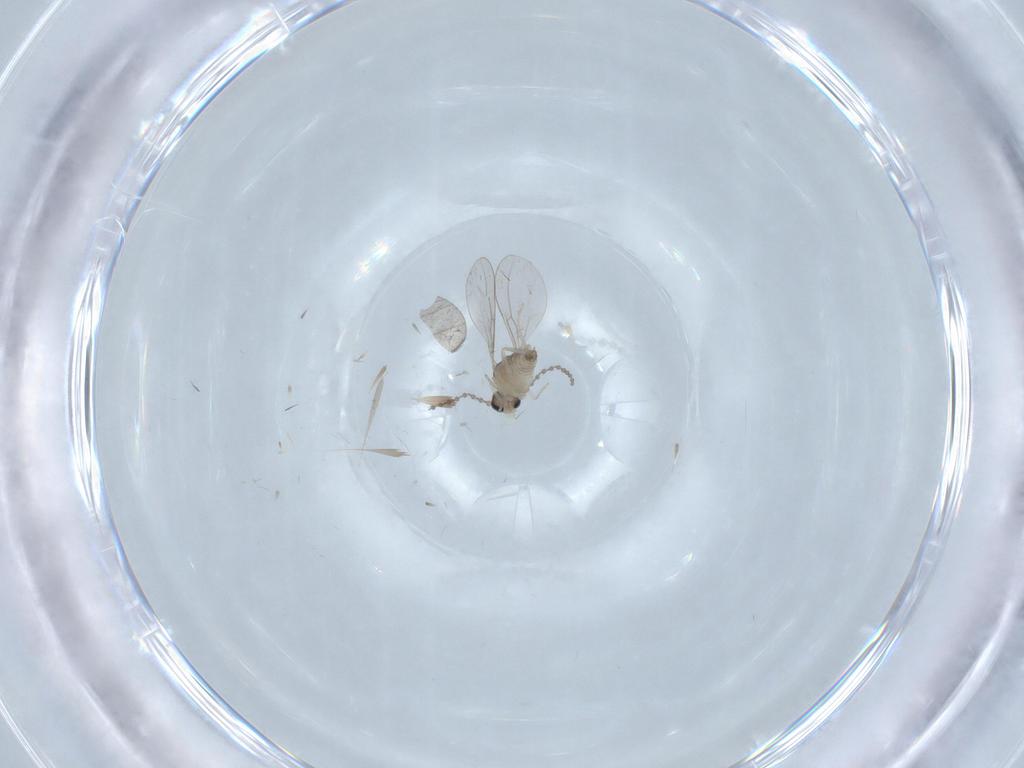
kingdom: Animalia
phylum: Arthropoda
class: Insecta
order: Diptera
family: Cecidomyiidae
